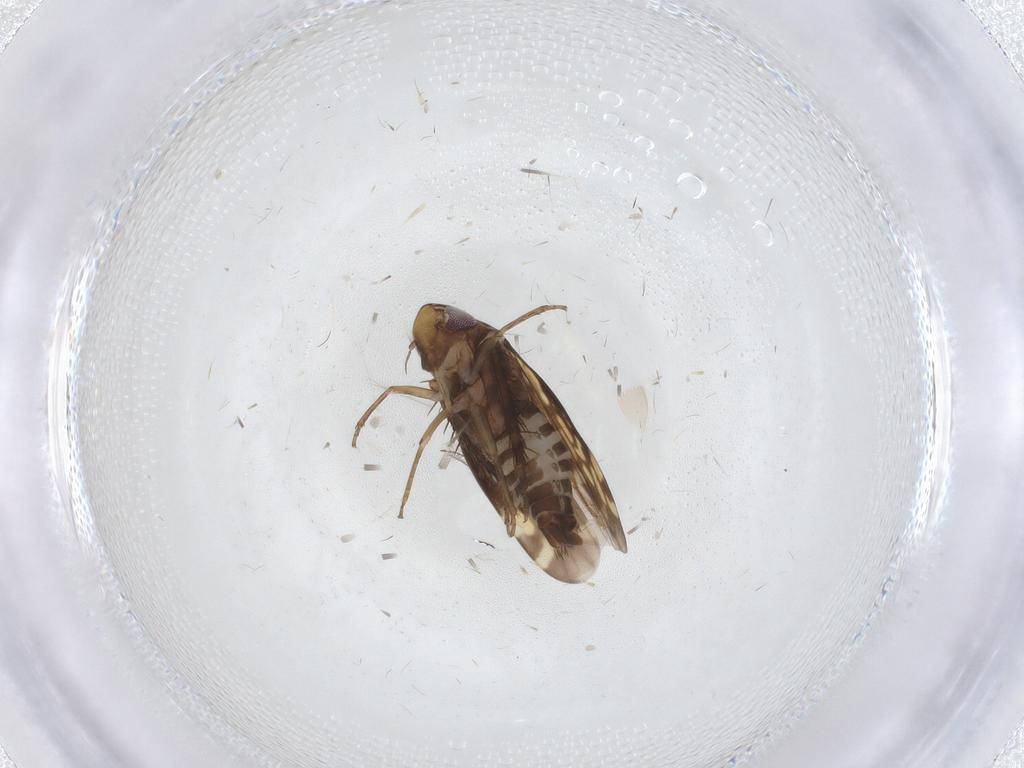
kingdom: Animalia
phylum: Arthropoda
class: Insecta
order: Hemiptera
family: Cicadellidae
